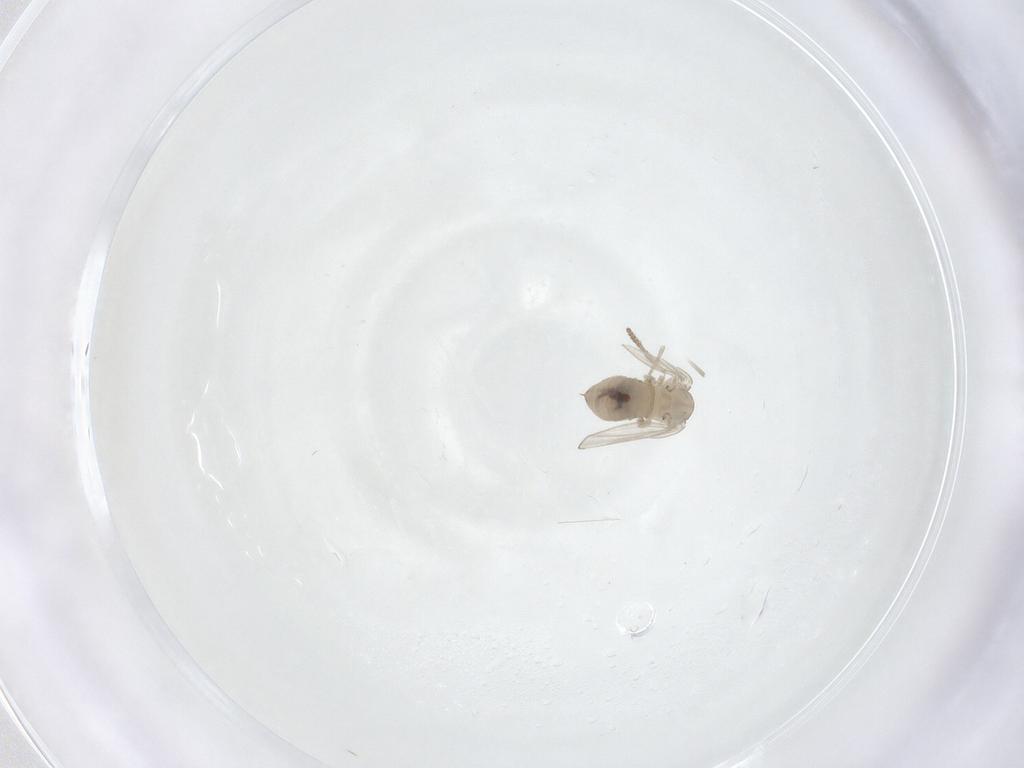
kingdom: Animalia
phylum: Arthropoda
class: Insecta
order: Diptera
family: Psychodidae
